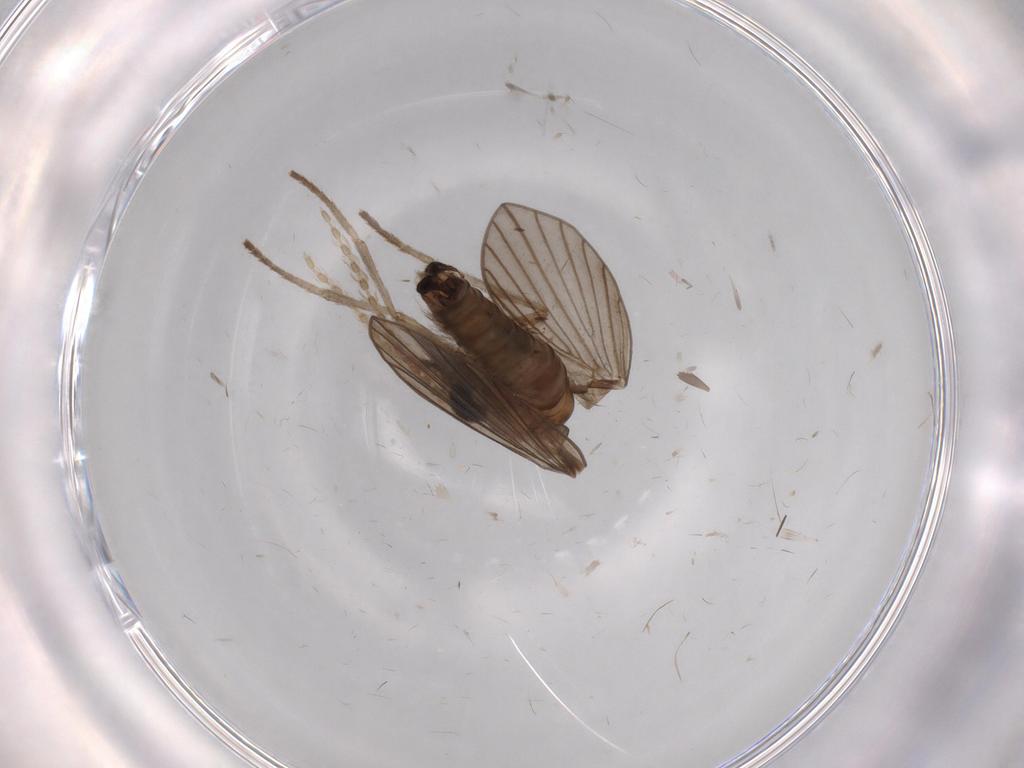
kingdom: Animalia
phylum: Arthropoda
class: Insecta
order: Diptera
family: Phoridae
